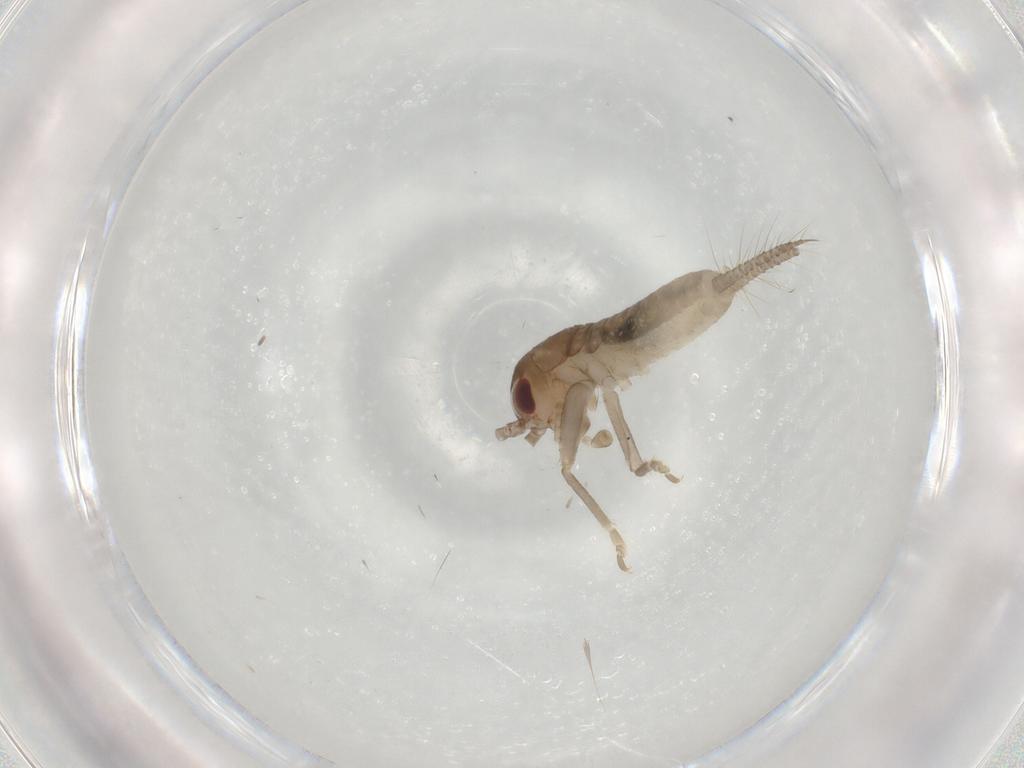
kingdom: Animalia
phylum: Arthropoda
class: Insecta
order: Orthoptera
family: Gryllidae
